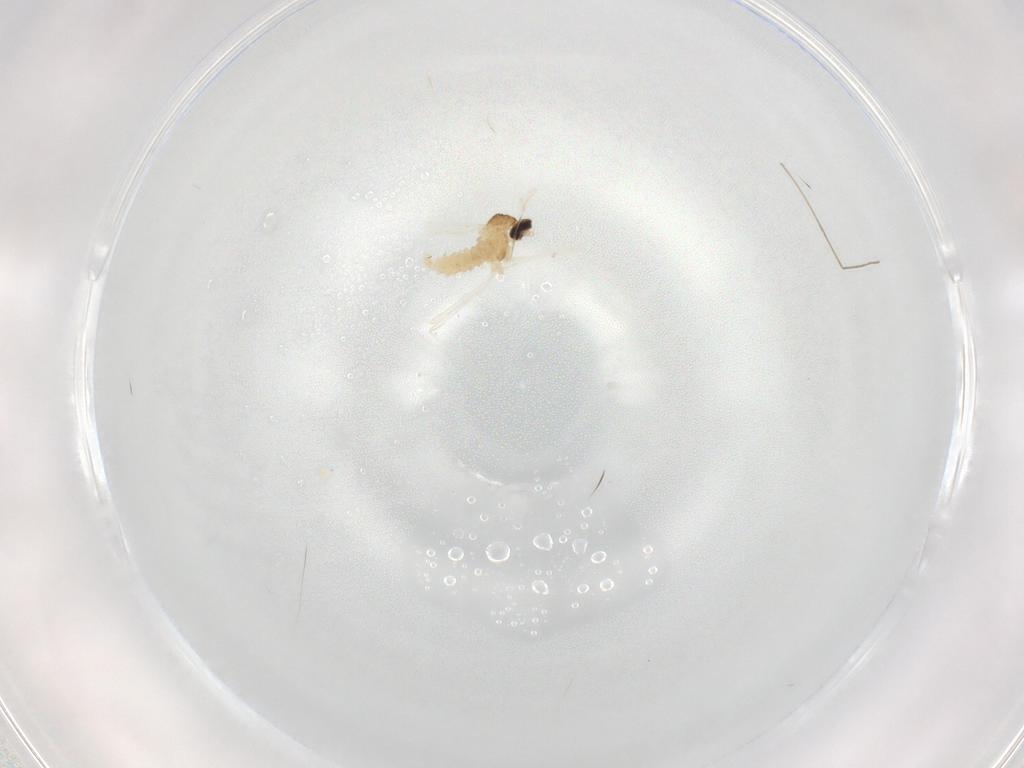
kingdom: Animalia
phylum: Arthropoda
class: Insecta
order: Diptera
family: Cecidomyiidae
